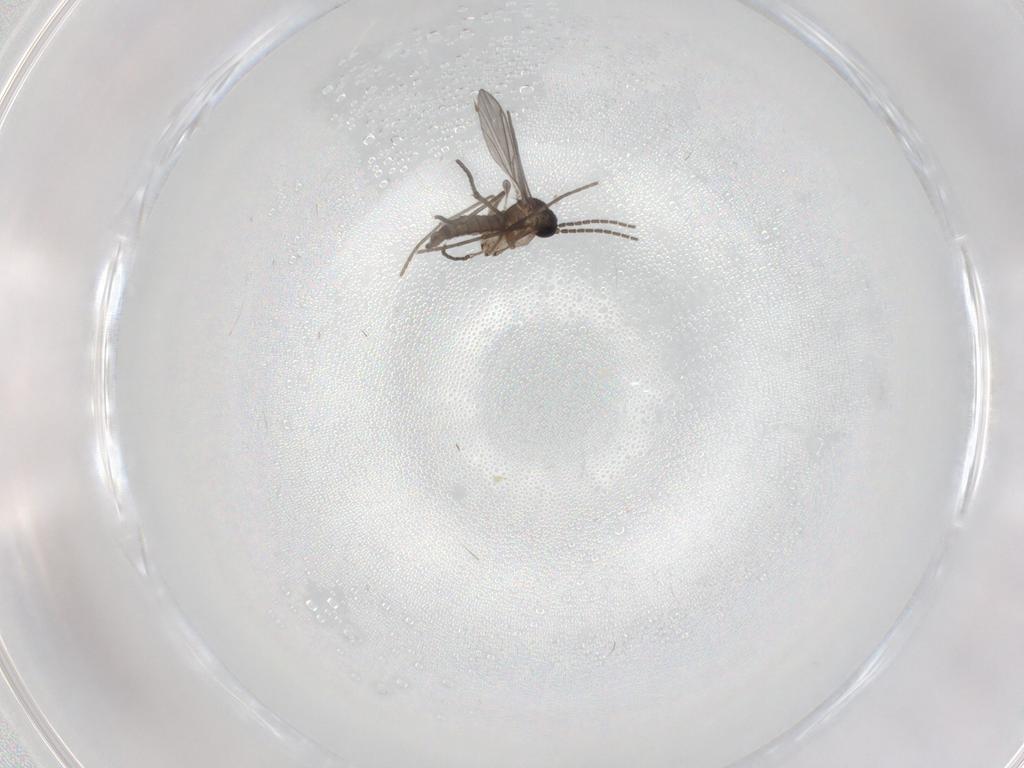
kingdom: Animalia
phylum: Arthropoda
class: Insecta
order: Diptera
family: Sciaridae
